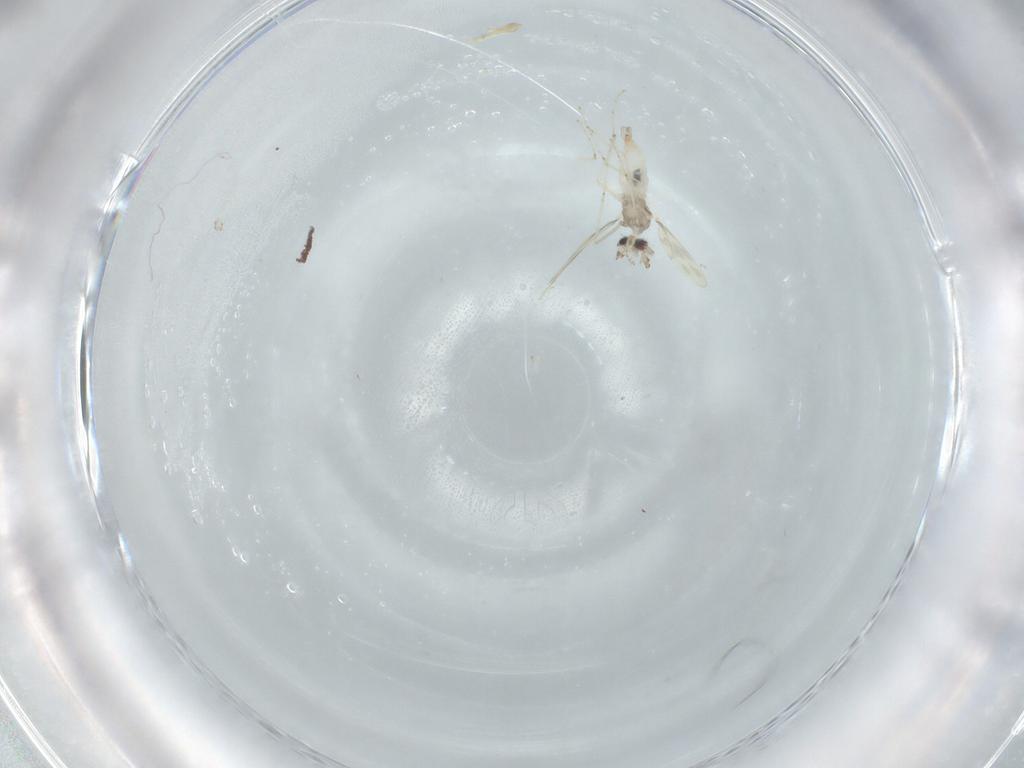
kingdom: Animalia
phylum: Arthropoda
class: Insecta
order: Diptera
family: Cecidomyiidae
